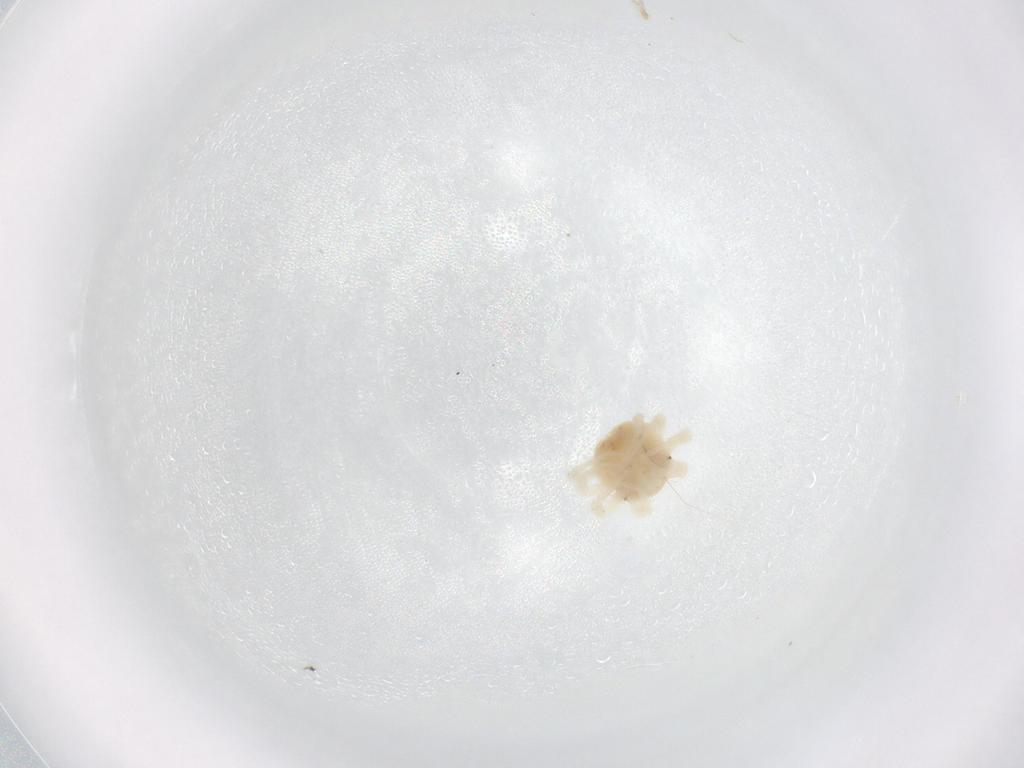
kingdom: Animalia
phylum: Arthropoda
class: Arachnida
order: Trombidiformes
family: Anystidae
